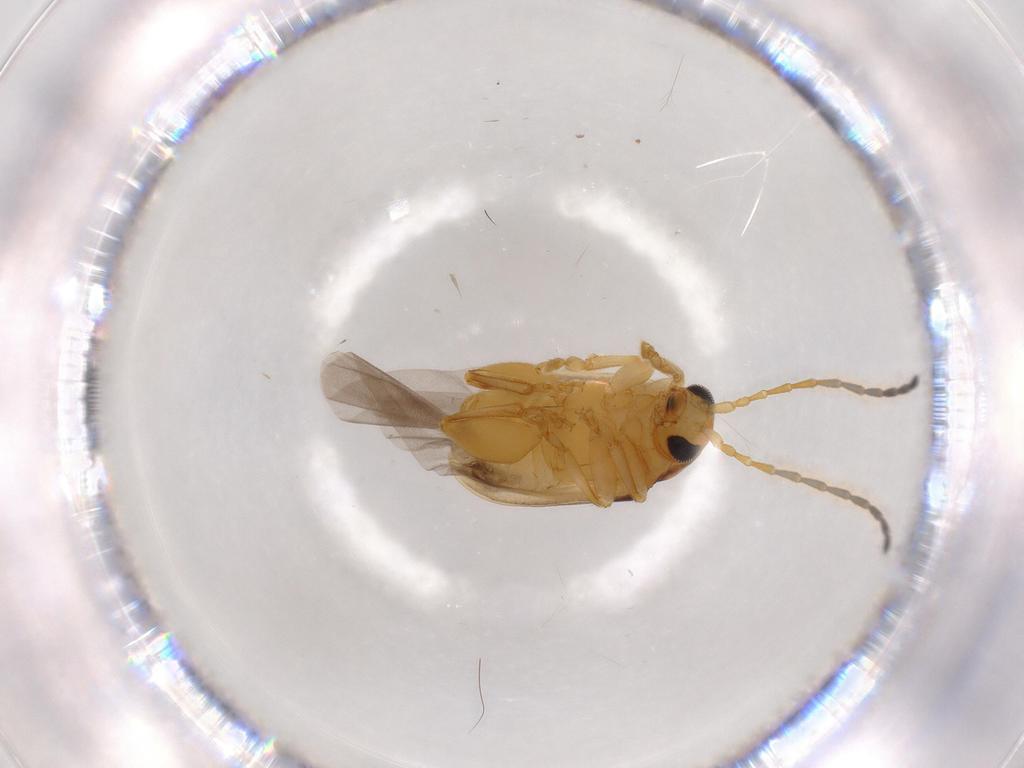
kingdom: Animalia
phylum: Arthropoda
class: Insecta
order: Coleoptera
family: Chrysomelidae
